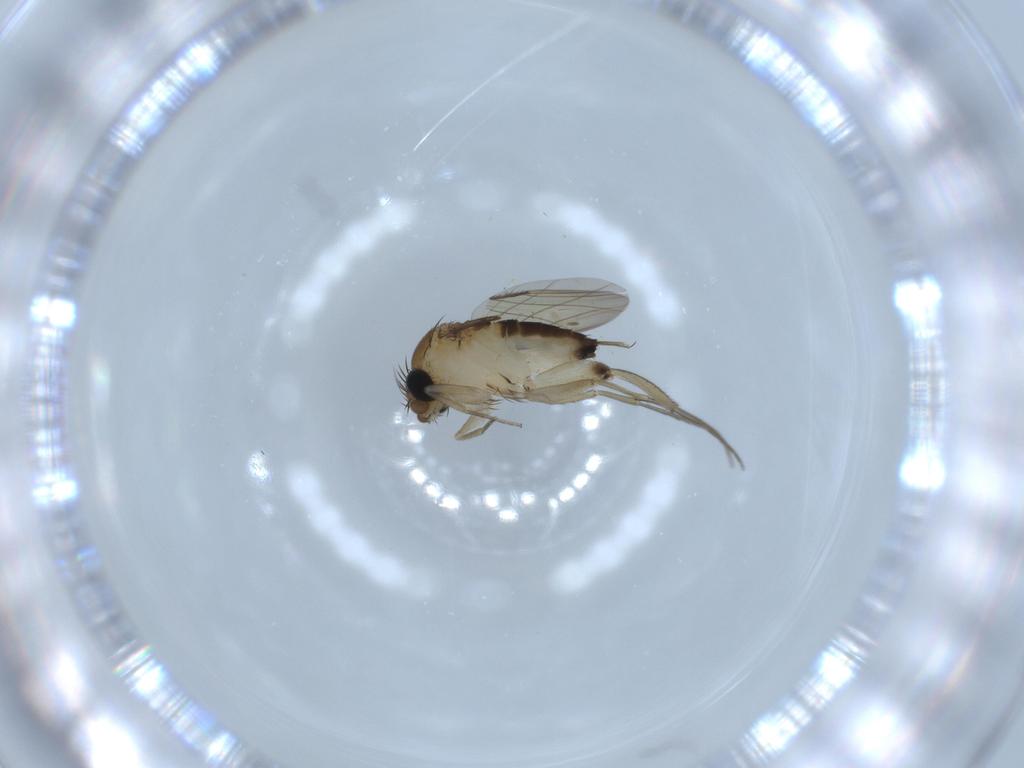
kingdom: Animalia
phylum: Arthropoda
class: Insecta
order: Diptera
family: Phoridae
